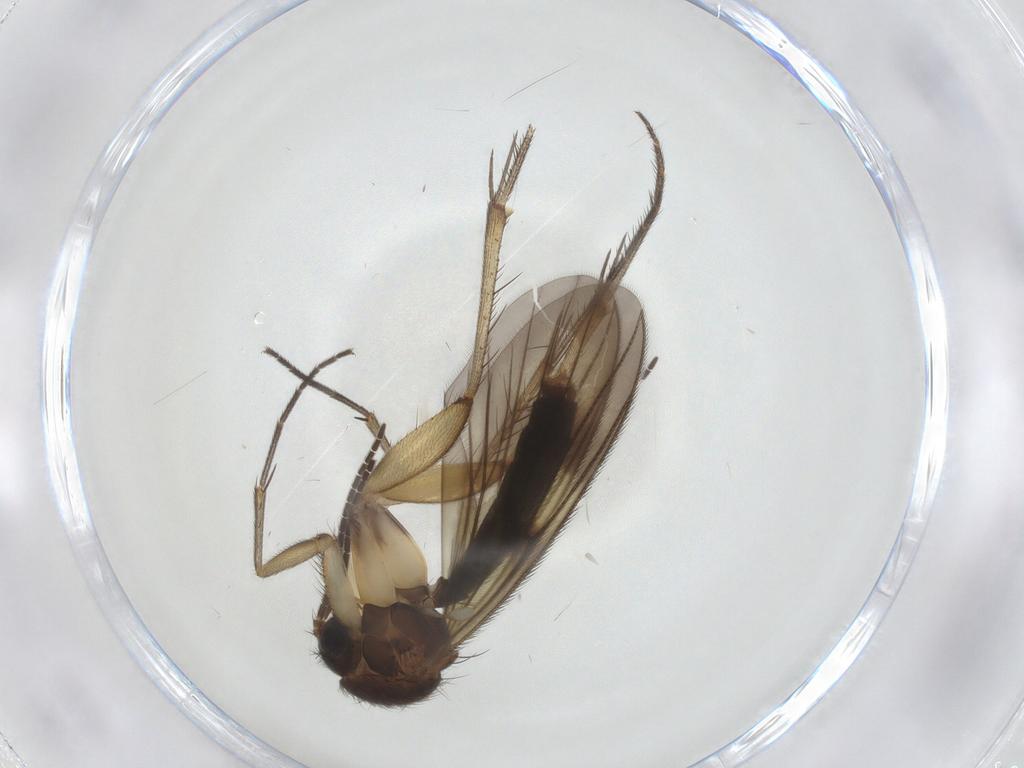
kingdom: Animalia
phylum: Arthropoda
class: Insecta
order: Diptera
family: Mycetophilidae
